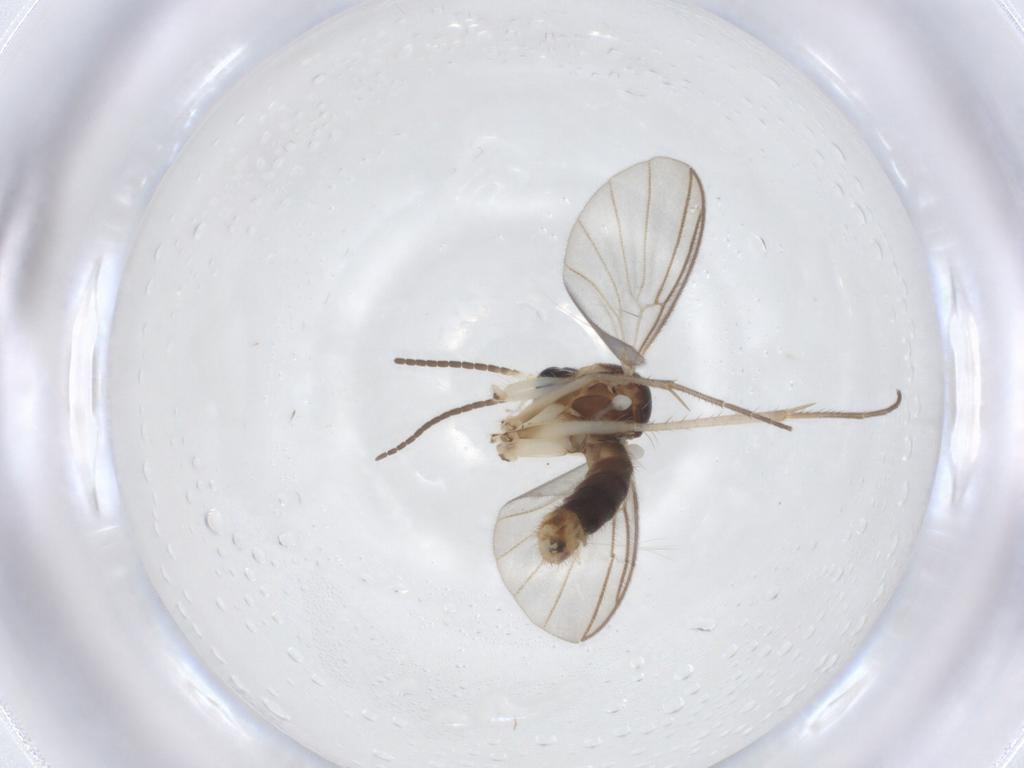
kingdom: Animalia
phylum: Arthropoda
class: Insecta
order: Diptera
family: Mycetophilidae
